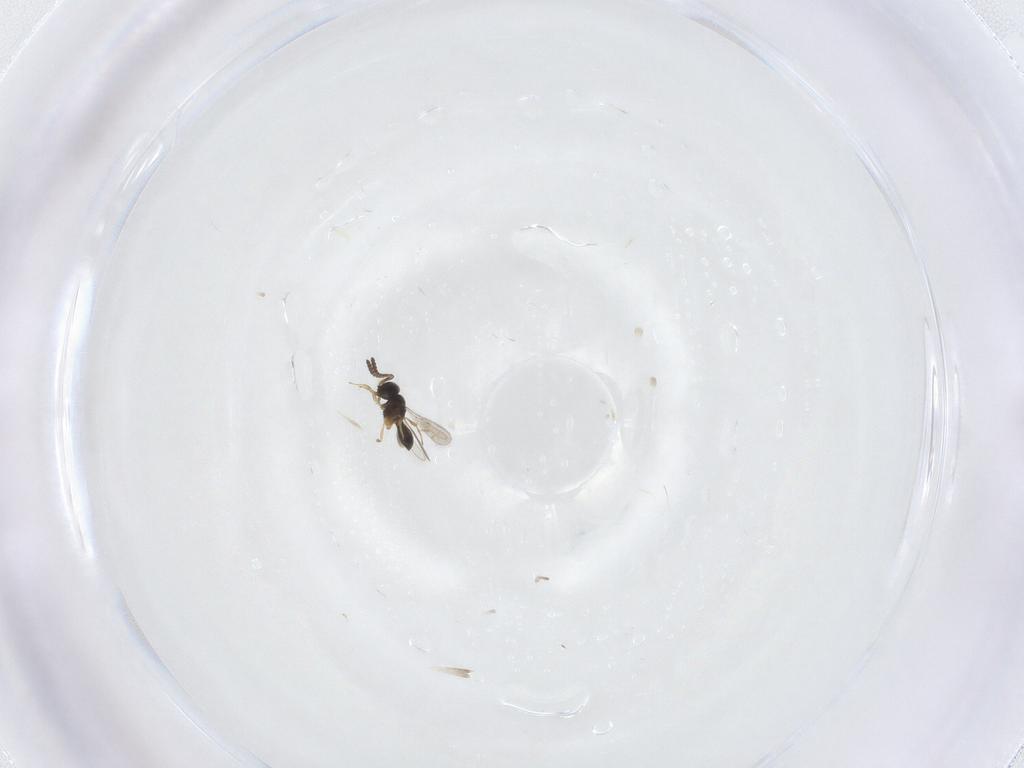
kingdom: Animalia
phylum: Arthropoda
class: Insecta
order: Hymenoptera
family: Scelionidae
